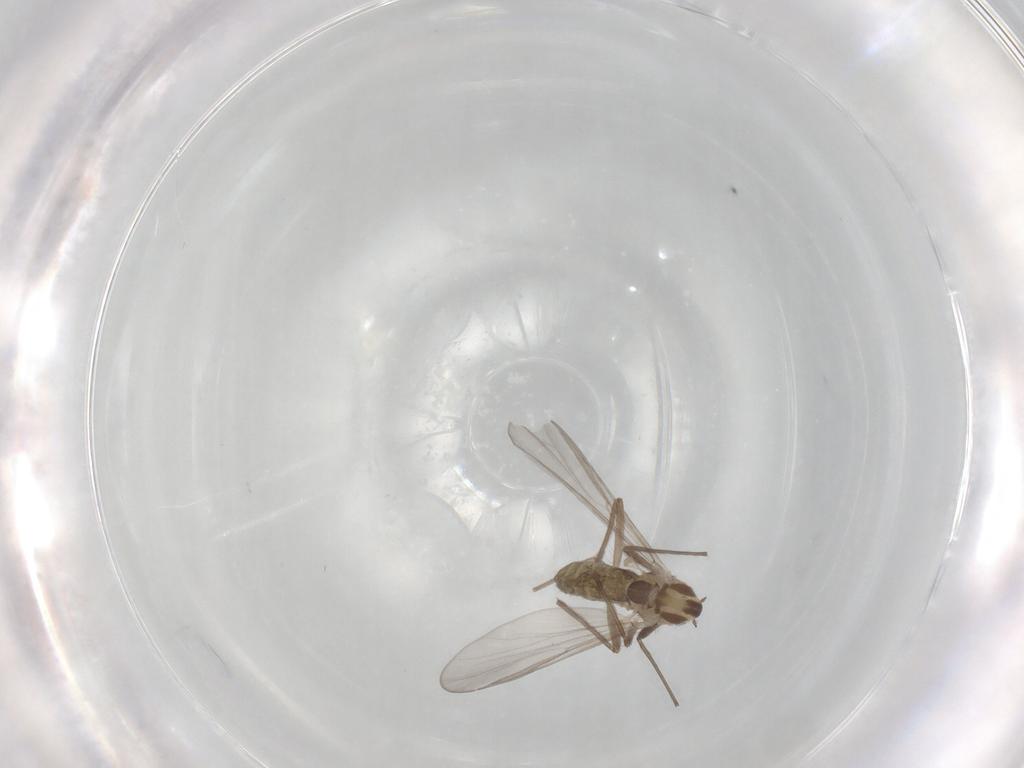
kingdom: Animalia
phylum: Arthropoda
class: Insecta
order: Diptera
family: Chironomidae
